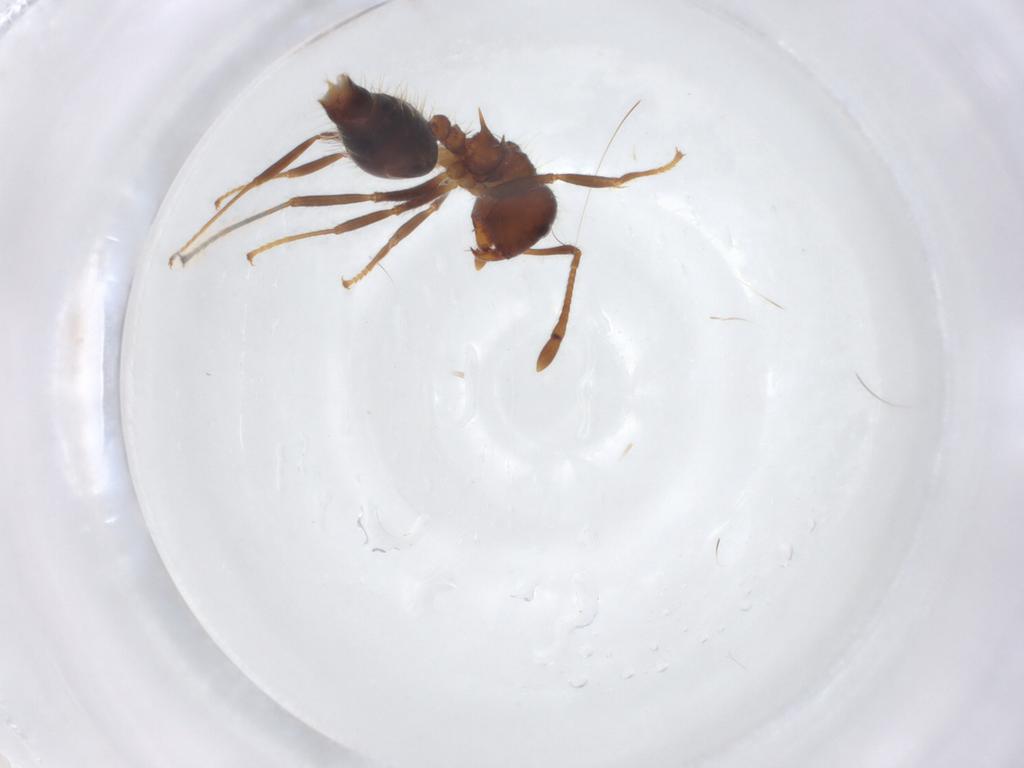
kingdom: Animalia
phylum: Arthropoda
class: Insecta
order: Hymenoptera
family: Formicidae
